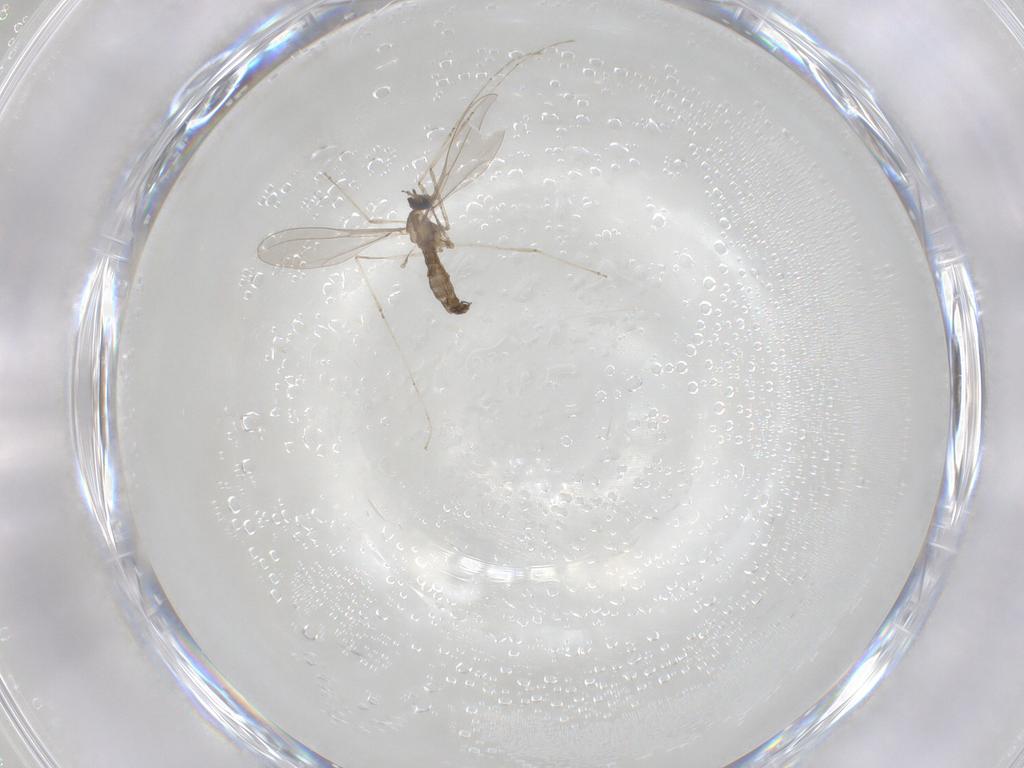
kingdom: Animalia
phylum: Arthropoda
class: Insecta
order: Diptera
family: Cecidomyiidae
